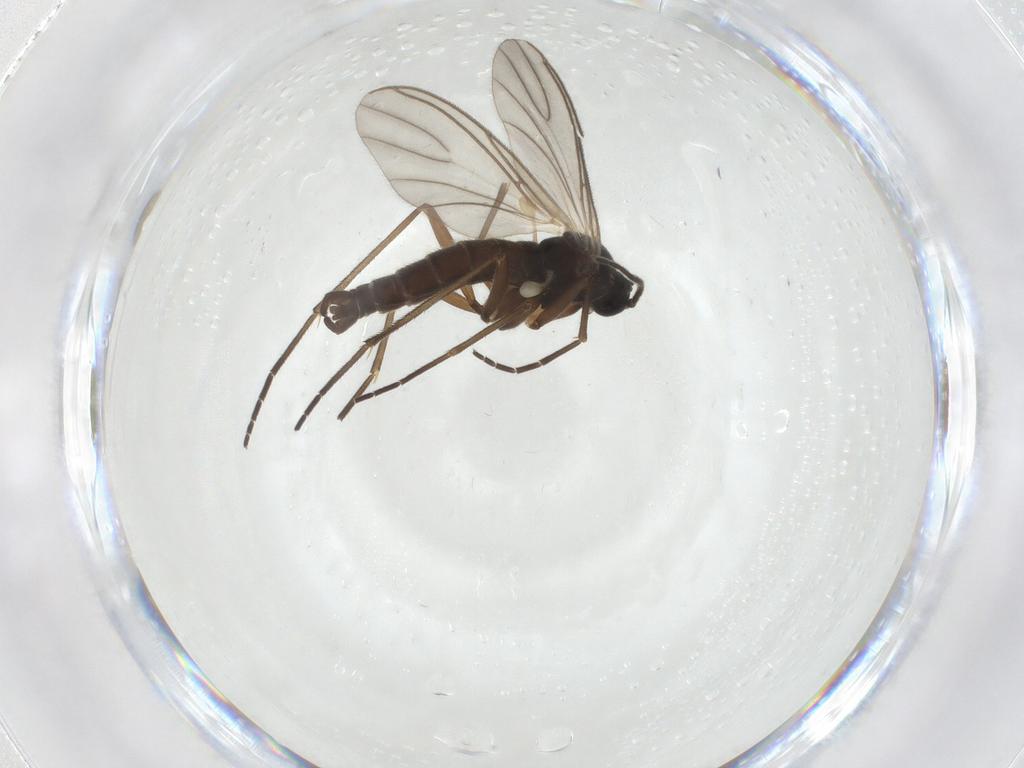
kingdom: Animalia
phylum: Arthropoda
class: Insecta
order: Diptera
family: Sciaridae
